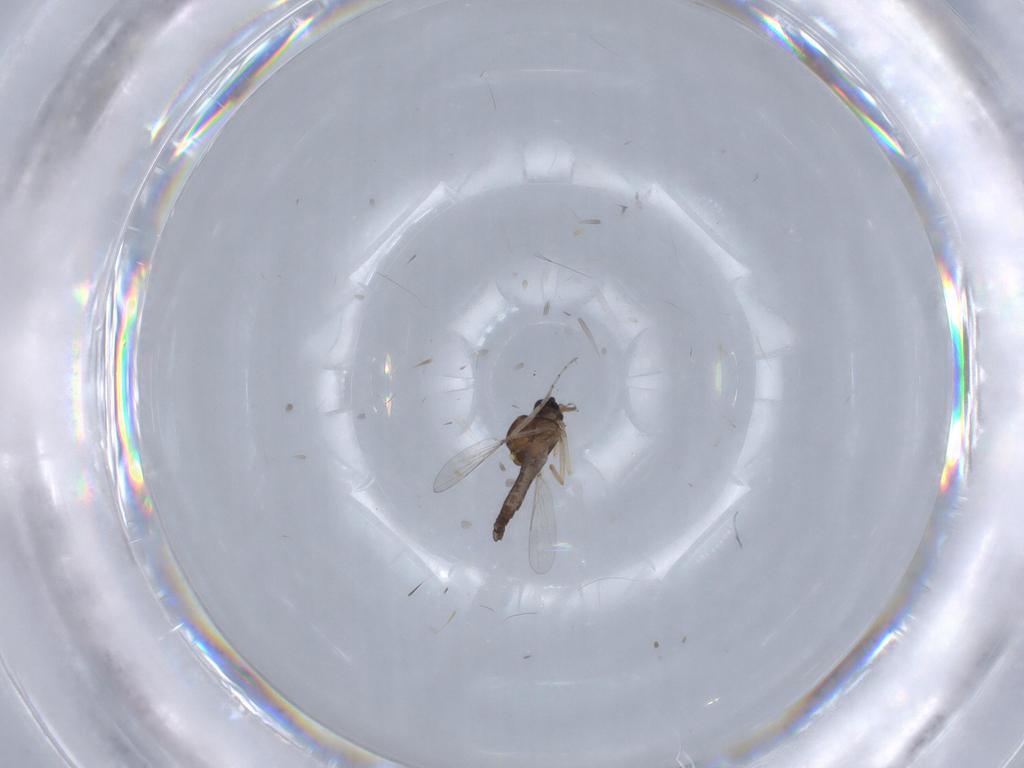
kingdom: Animalia
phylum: Arthropoda
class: Insecta
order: Diptera
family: Ceratopogonidae
